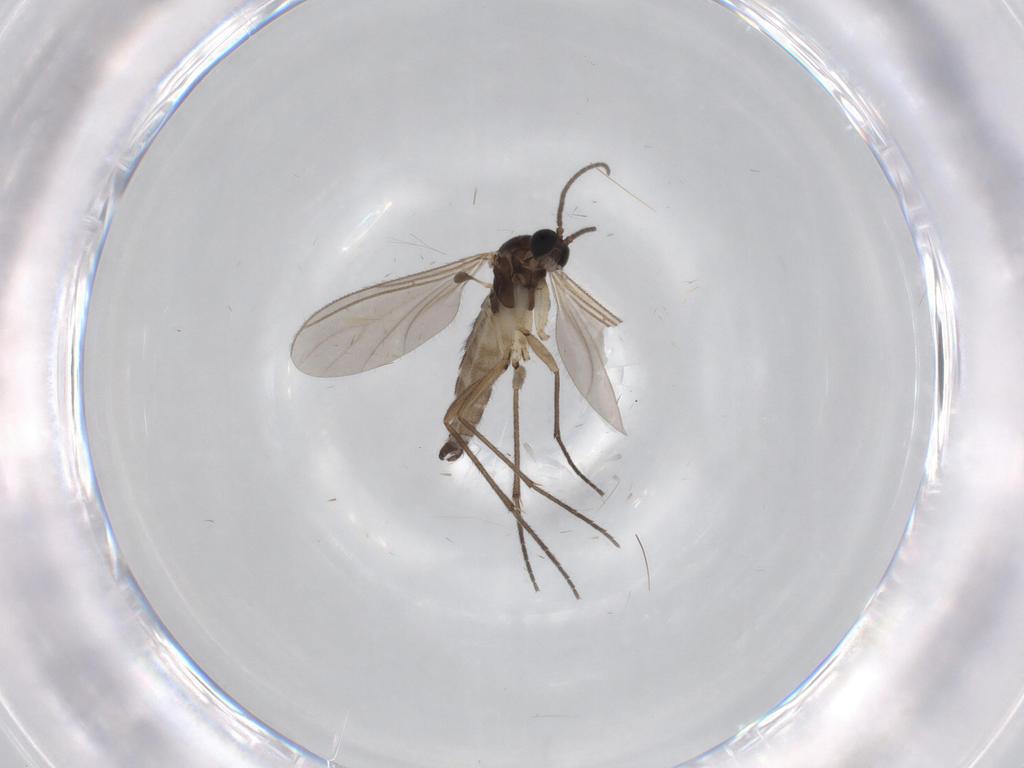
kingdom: Animalia
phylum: Arthropoda
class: Insecta
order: Diptera
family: Sciaridae
